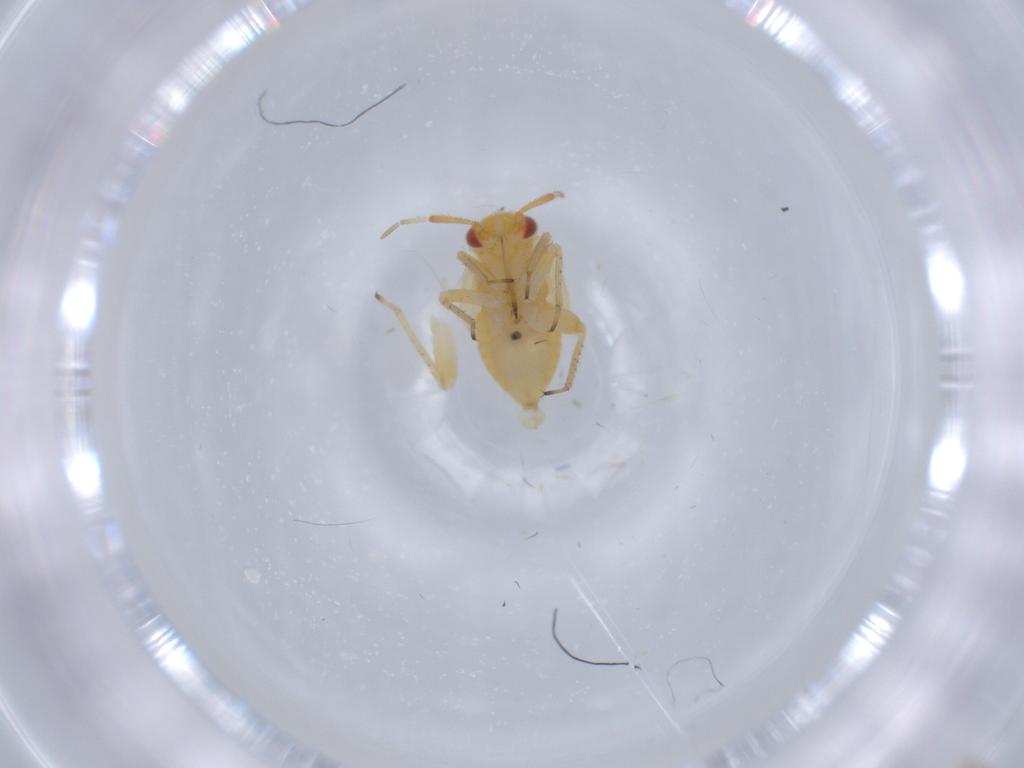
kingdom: Animalia
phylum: Arthropoda
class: Insecta
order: Hemiptera
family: Miridae
